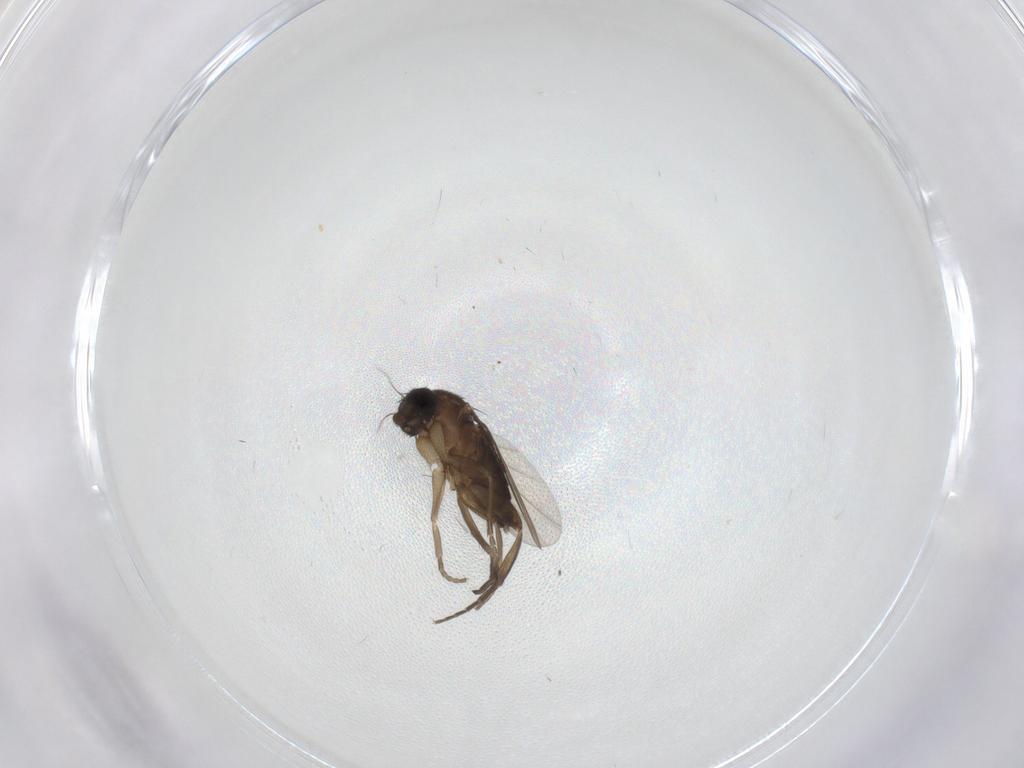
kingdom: Animalia
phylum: Arthropoda
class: Insecta
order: Diptera
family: Phoridae
